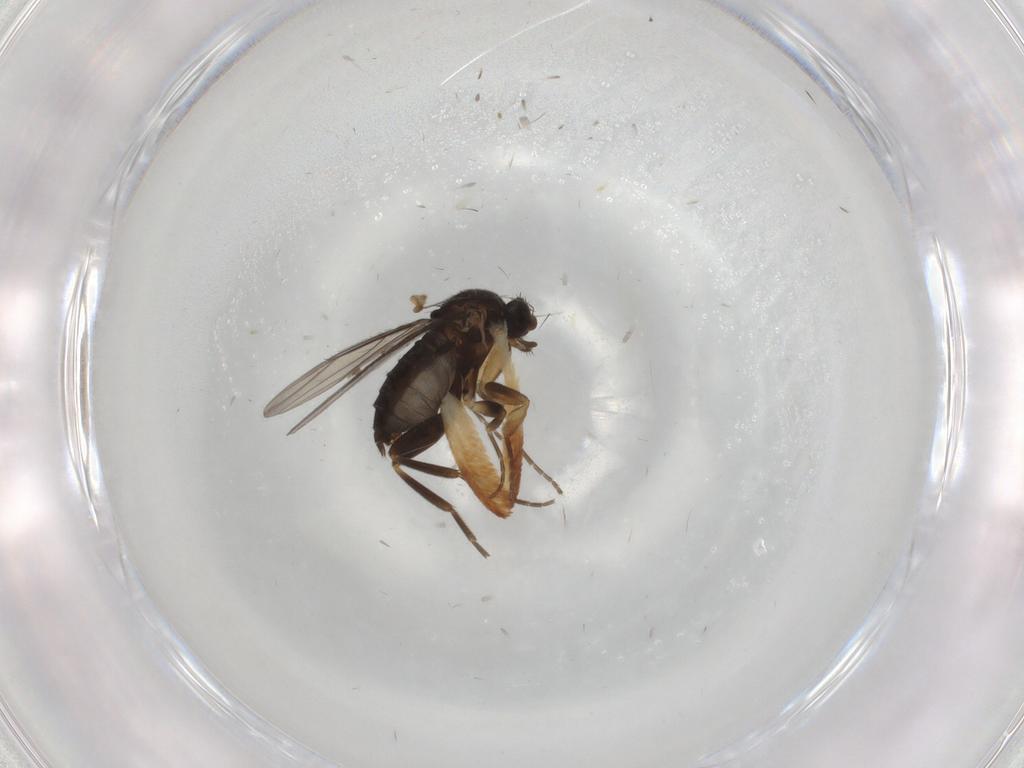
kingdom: Animalia
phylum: Arthropoda
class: Insecta
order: Diptera
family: Phoridae
